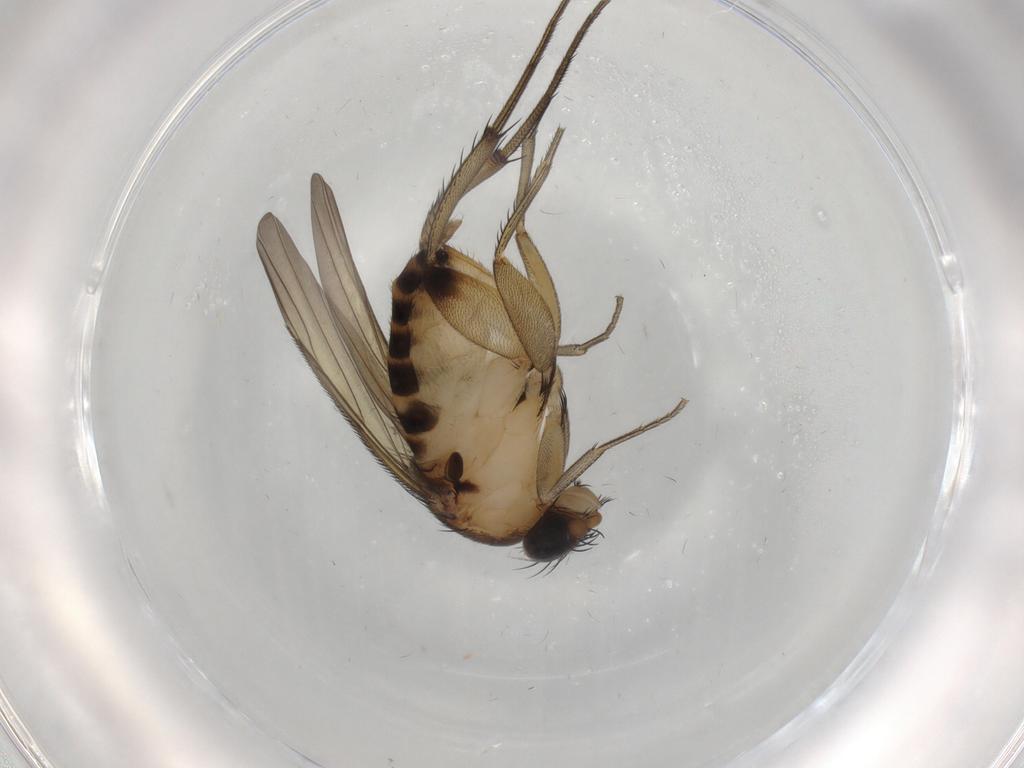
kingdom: Animalia
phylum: Arthropoda
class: Insecta
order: Diptera
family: Phoridae
